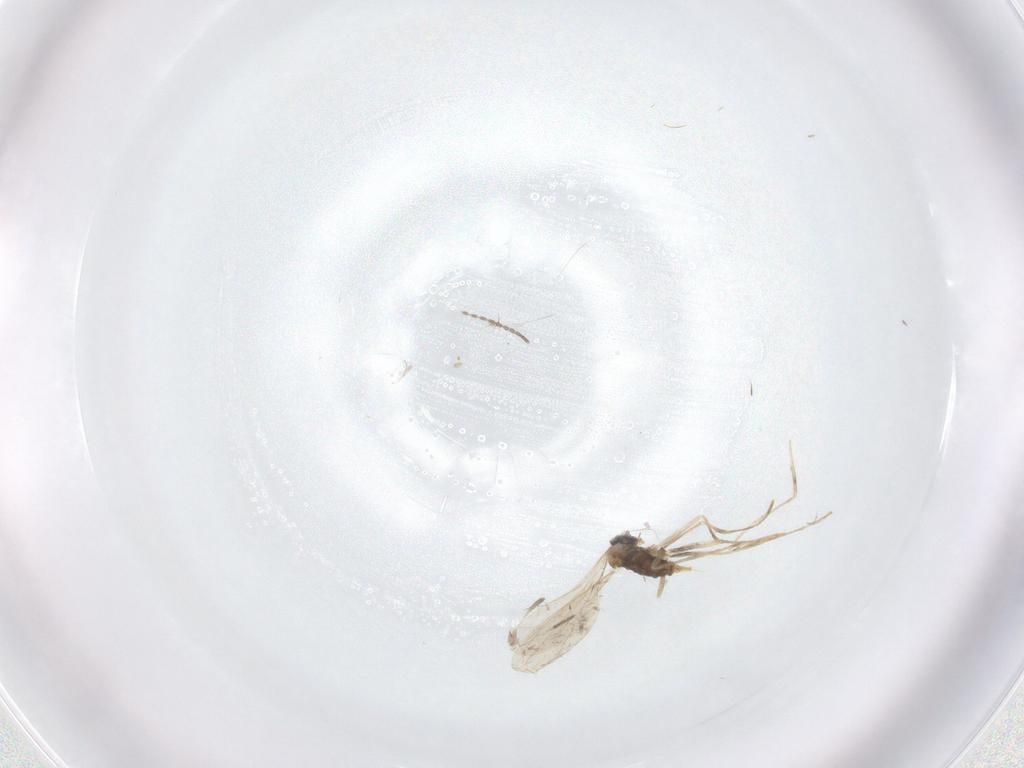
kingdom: Animalia
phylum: Arthropoda
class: Insecta
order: Diptera
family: Cecidomyiidae
